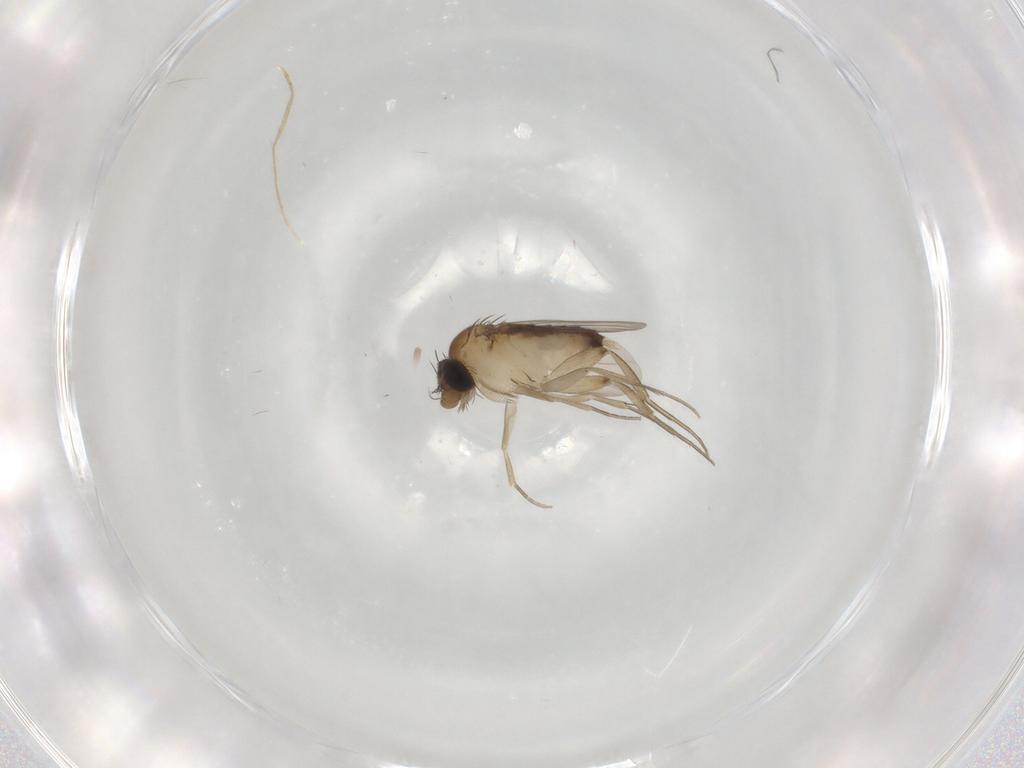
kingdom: Animalia
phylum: Arthropoda
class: Insecta
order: Diptera
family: Phoridae
